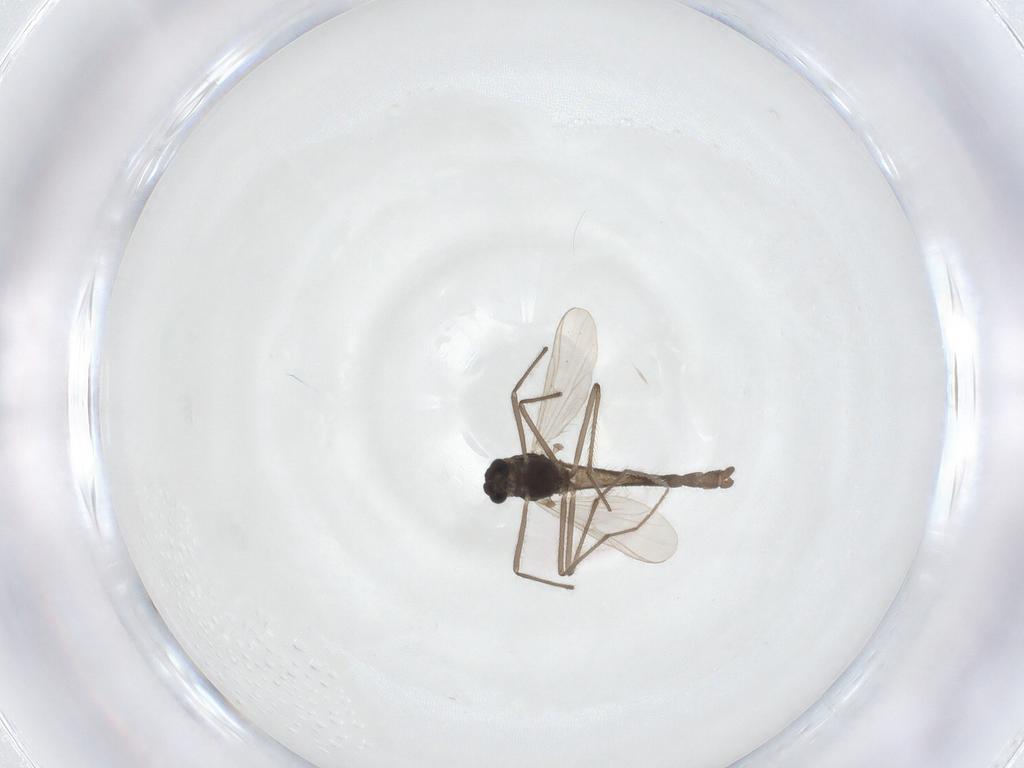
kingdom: Animalia
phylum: Arthropoda
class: Insecta
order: Diptera
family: Chironomidae
